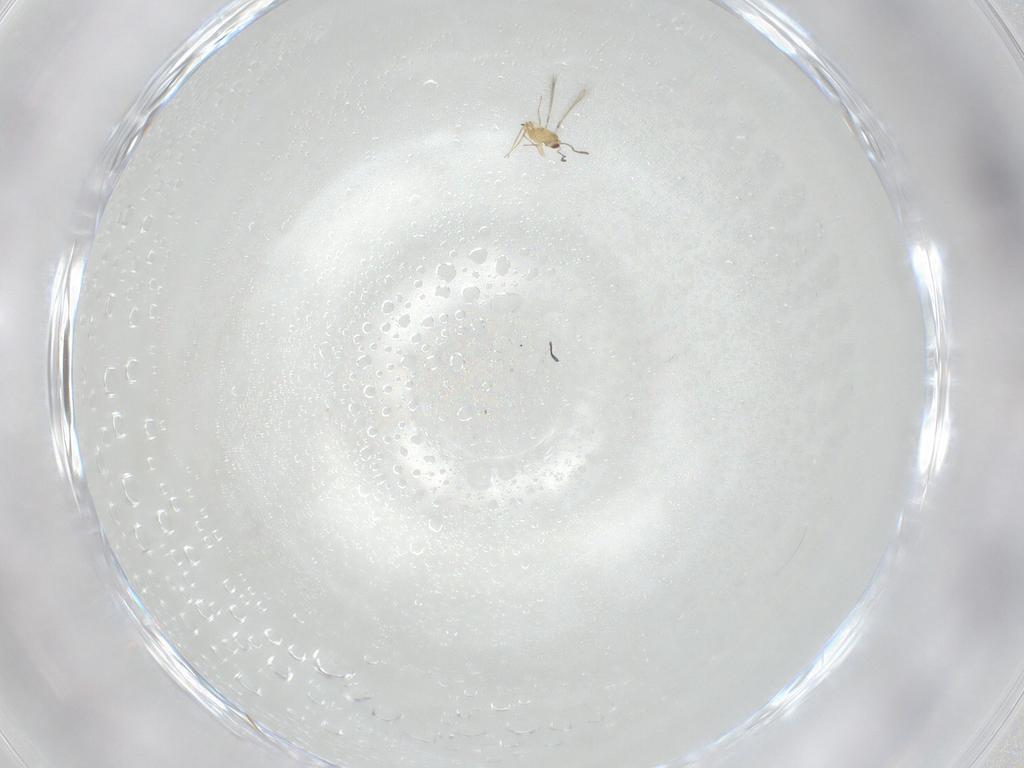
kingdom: Animalia
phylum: Arthropoda
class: Insecta
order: Hymenoptera
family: Mymaridae
